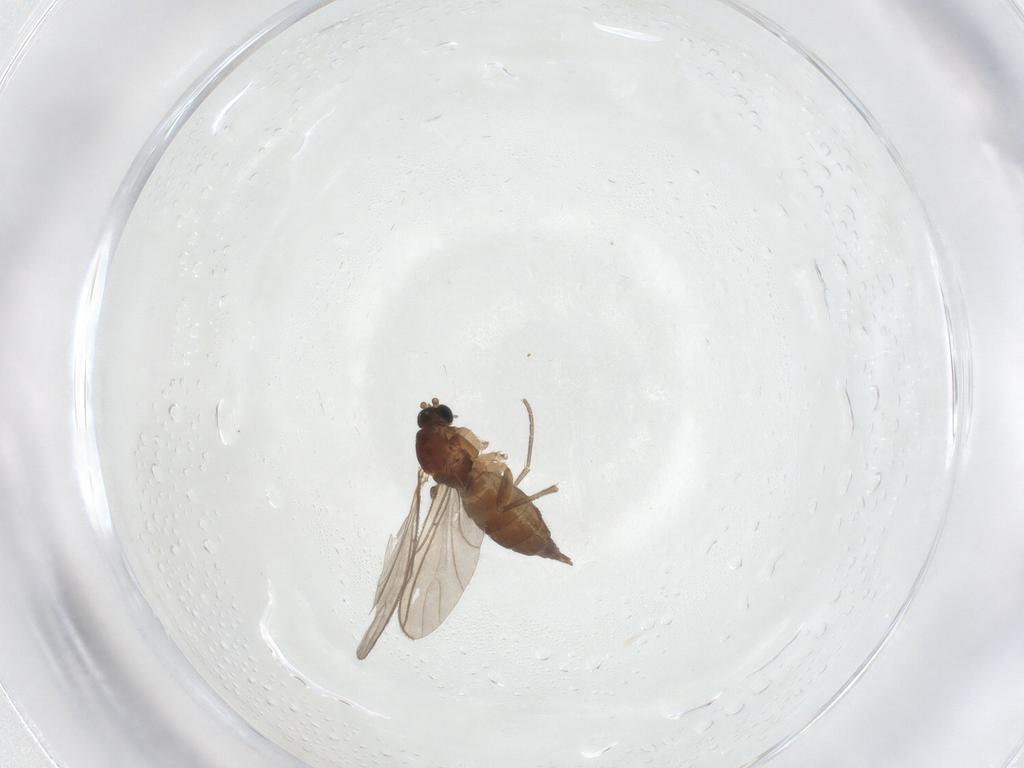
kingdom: Animalia
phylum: Arthropoda
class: Insecta
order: Diptera
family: Sciaridae
